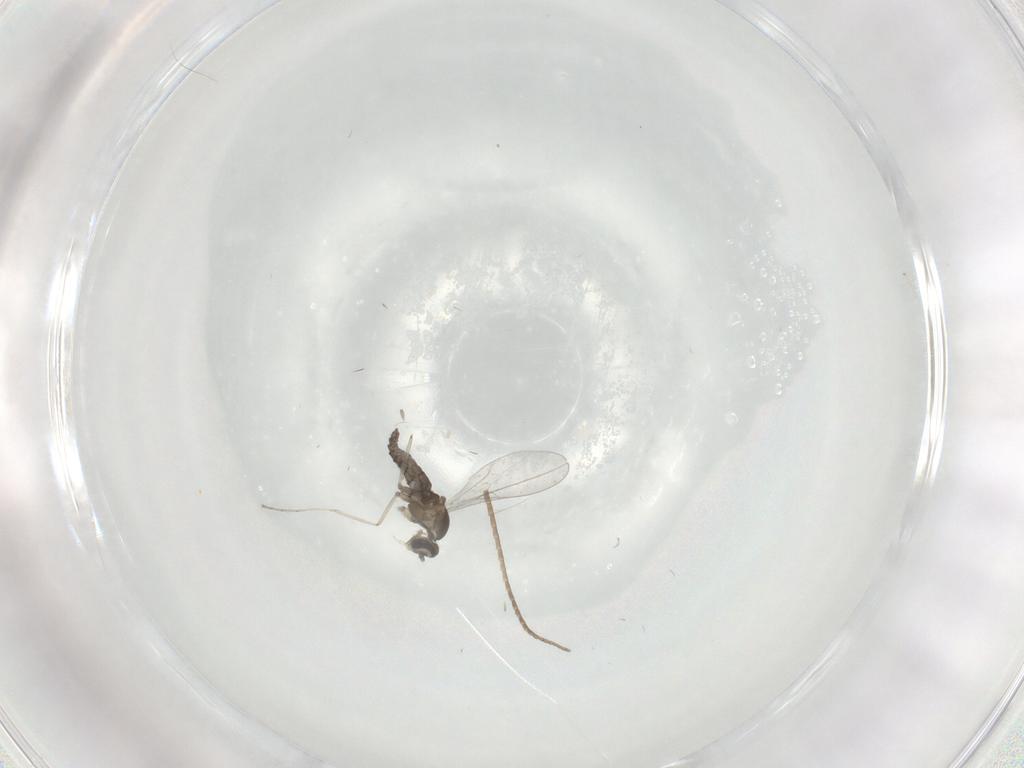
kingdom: Animalia
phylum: Arthropoda
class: Insecta
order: Diptera
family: Cecidomyiidae
